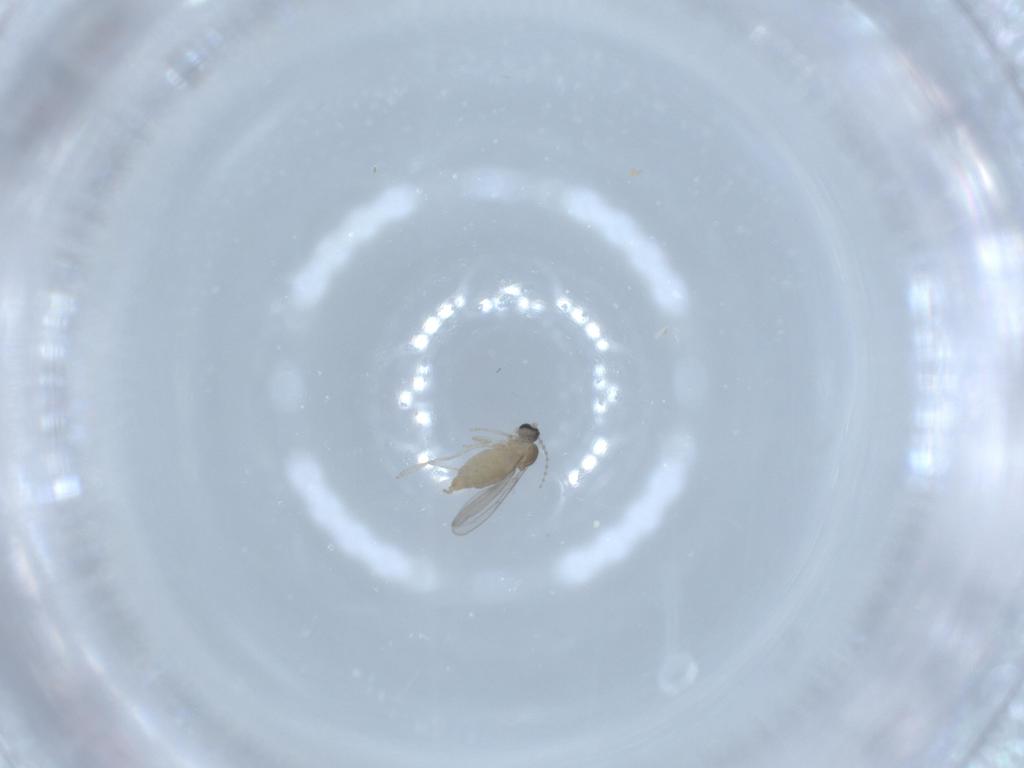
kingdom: Animalia
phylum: Arthropoda
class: Insecta
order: Diptera
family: Cecidomyiidae
